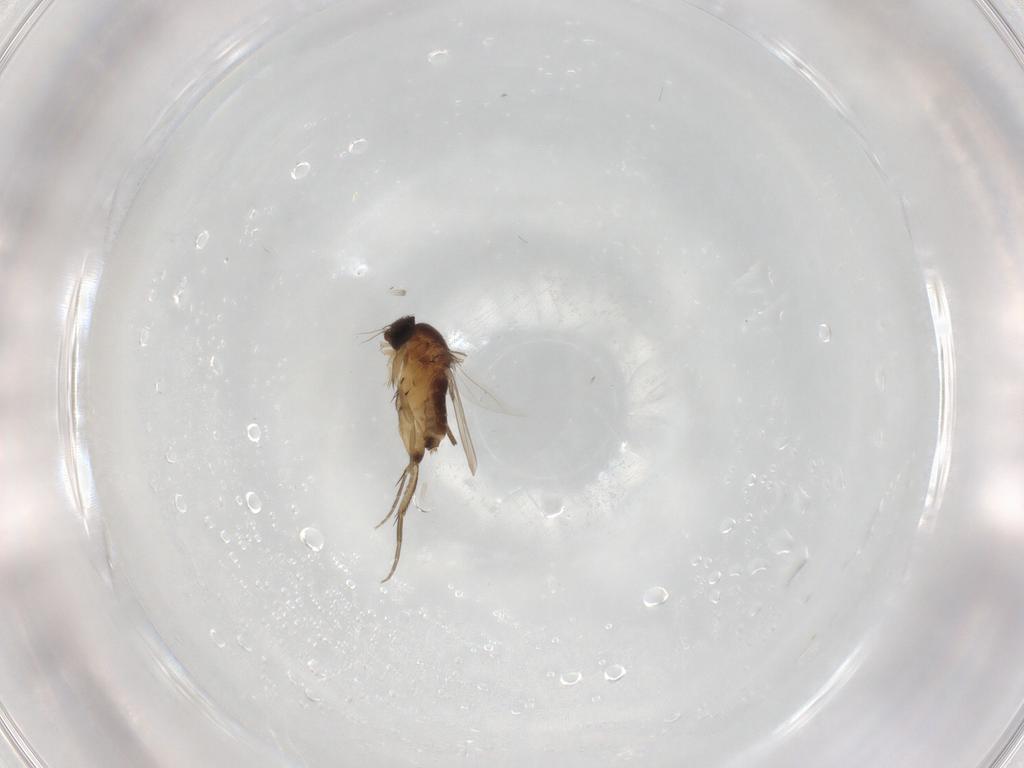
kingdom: Animalia
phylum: Arthropoda
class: Insecta
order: Diptera
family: Phoridae
